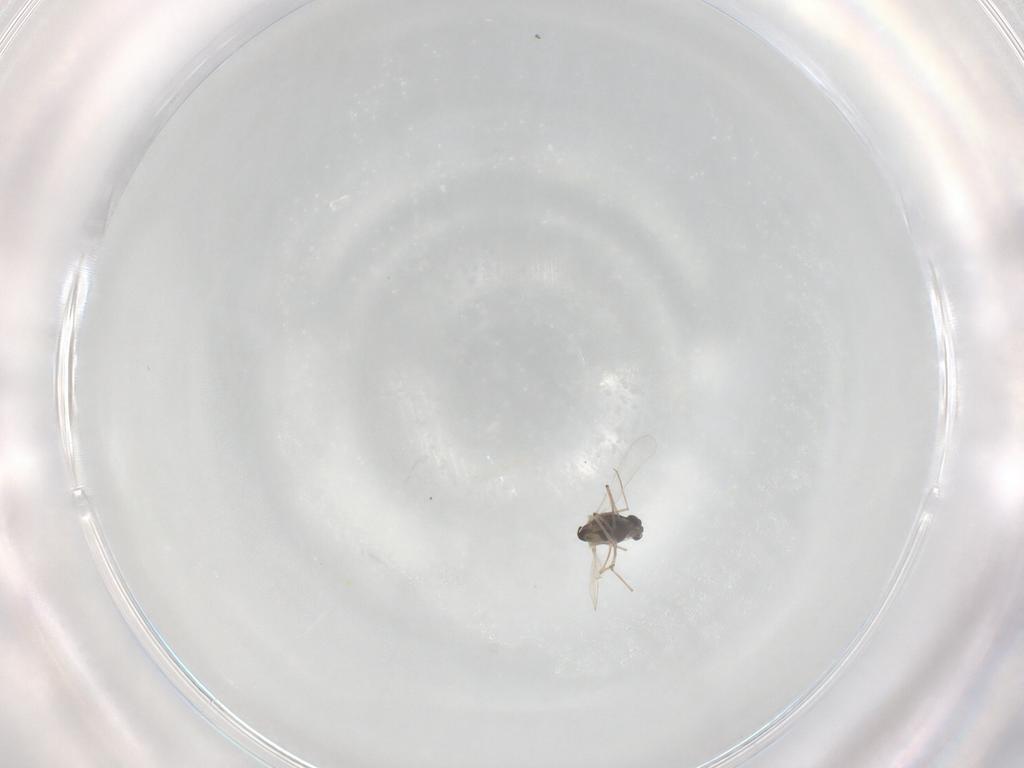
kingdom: Animalia
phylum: Arthropoda
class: Insecta
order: Diptera
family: Chironomidae
